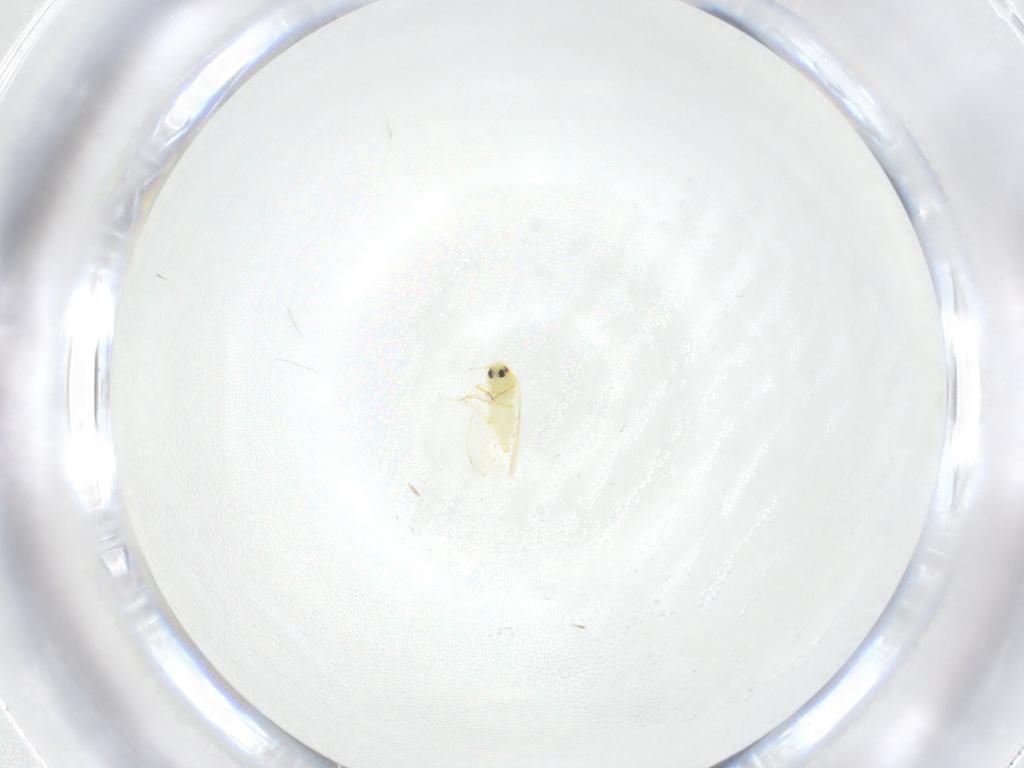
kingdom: Animalia
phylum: Arthropoda
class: Insecta
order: Hemiptera
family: Aleyrodidae
